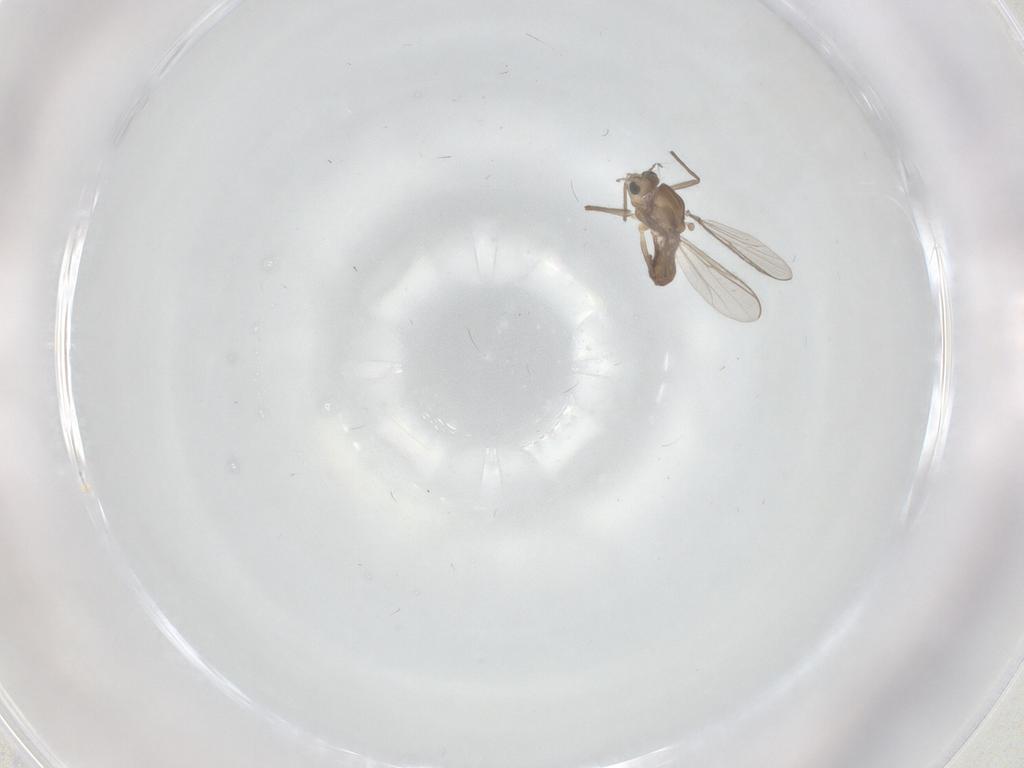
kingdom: Animalia
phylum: Arthropoda
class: Insecta
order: Diptera
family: Chironomidae
